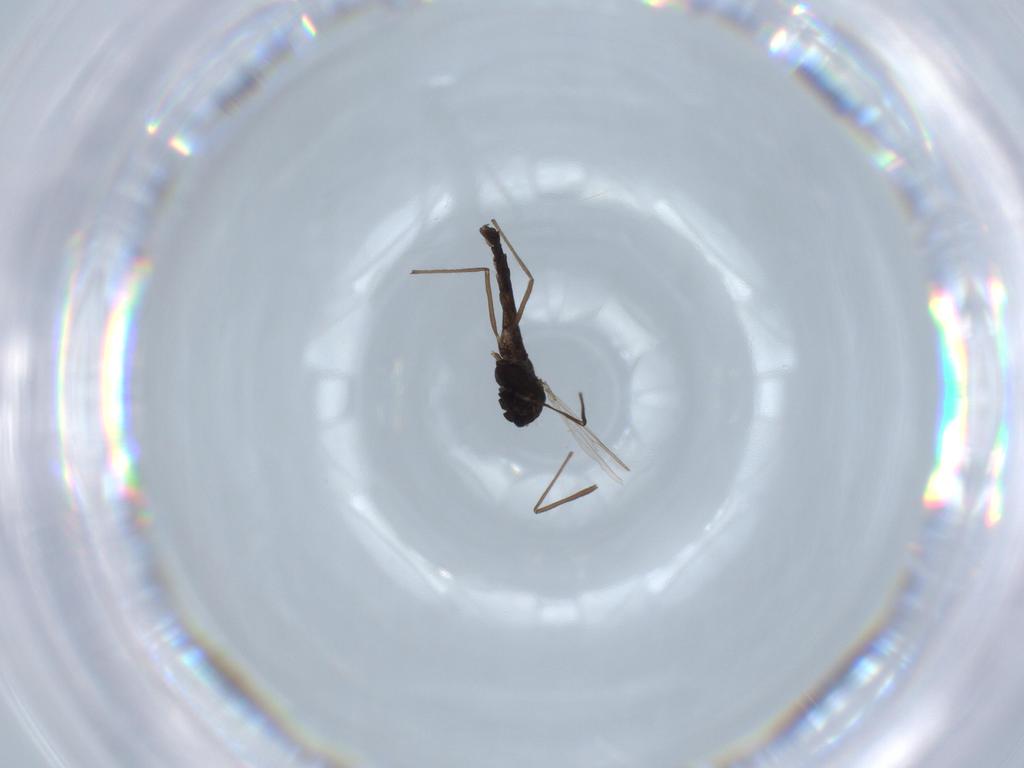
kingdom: Animalia
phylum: Arthropoda
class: Insecta
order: Diptera
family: Chironomidae
